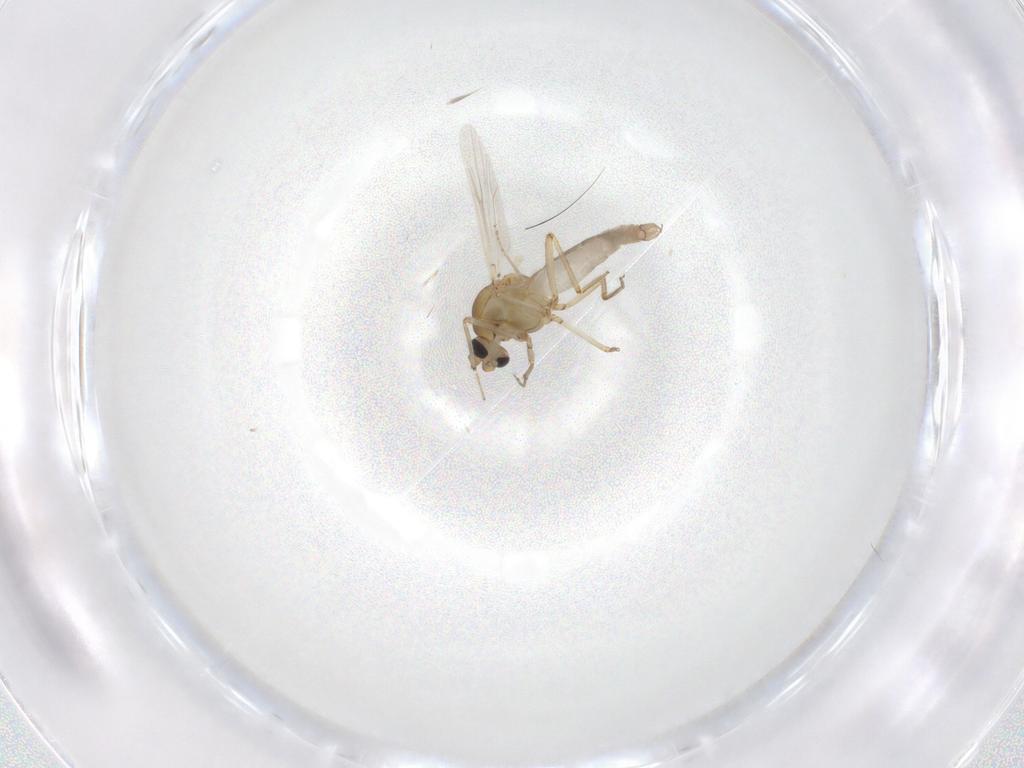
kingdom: Animalia
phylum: Arthropoda
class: Insecta
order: Diptera
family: Ceratopogonidae
